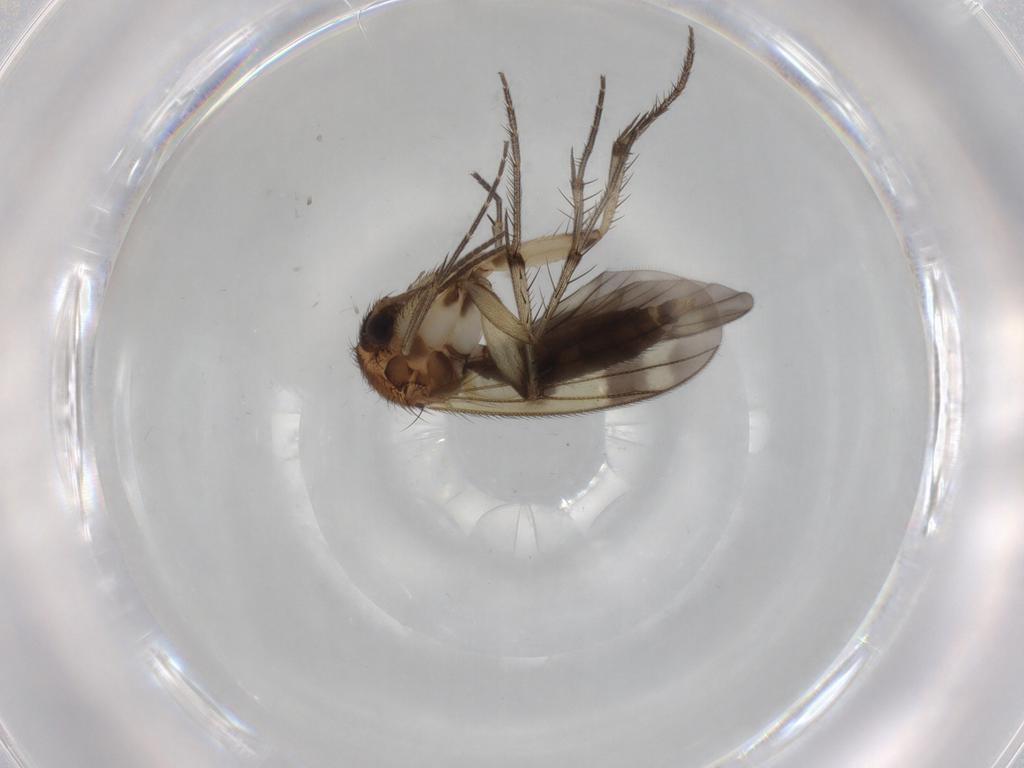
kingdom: Animalia
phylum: Arthropoda
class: Insecta
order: Diptera
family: Mycetophilidae
